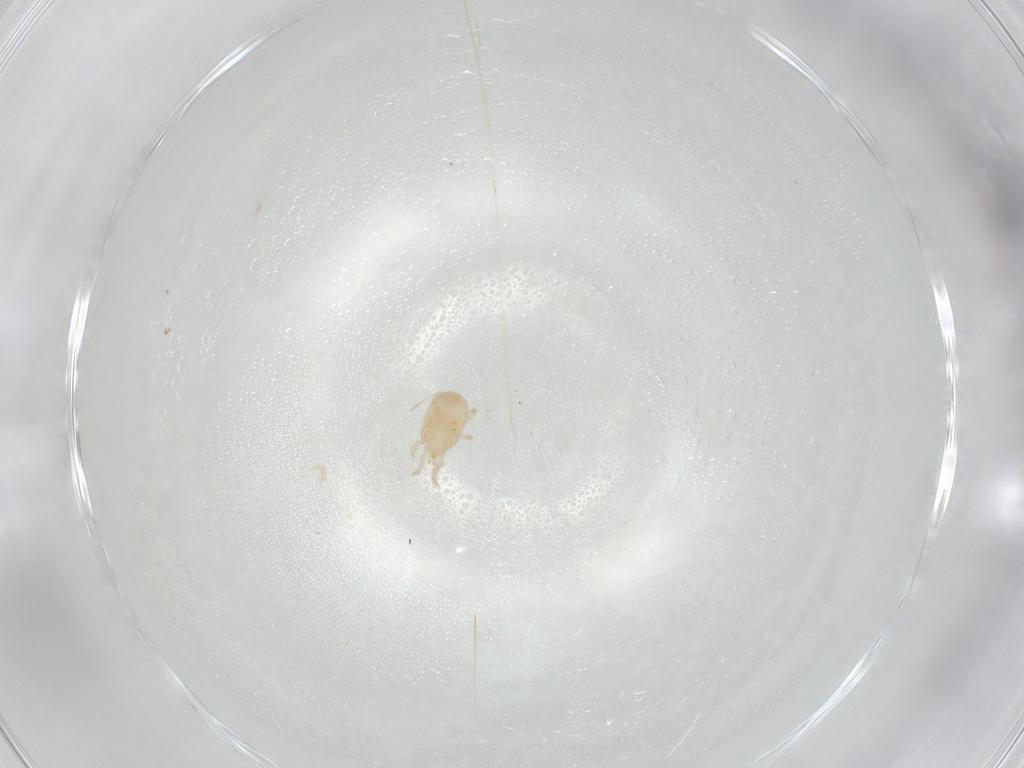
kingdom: Animalia
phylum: Arthropoda
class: Arachnida
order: Mesostigmata
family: Melicharidae
